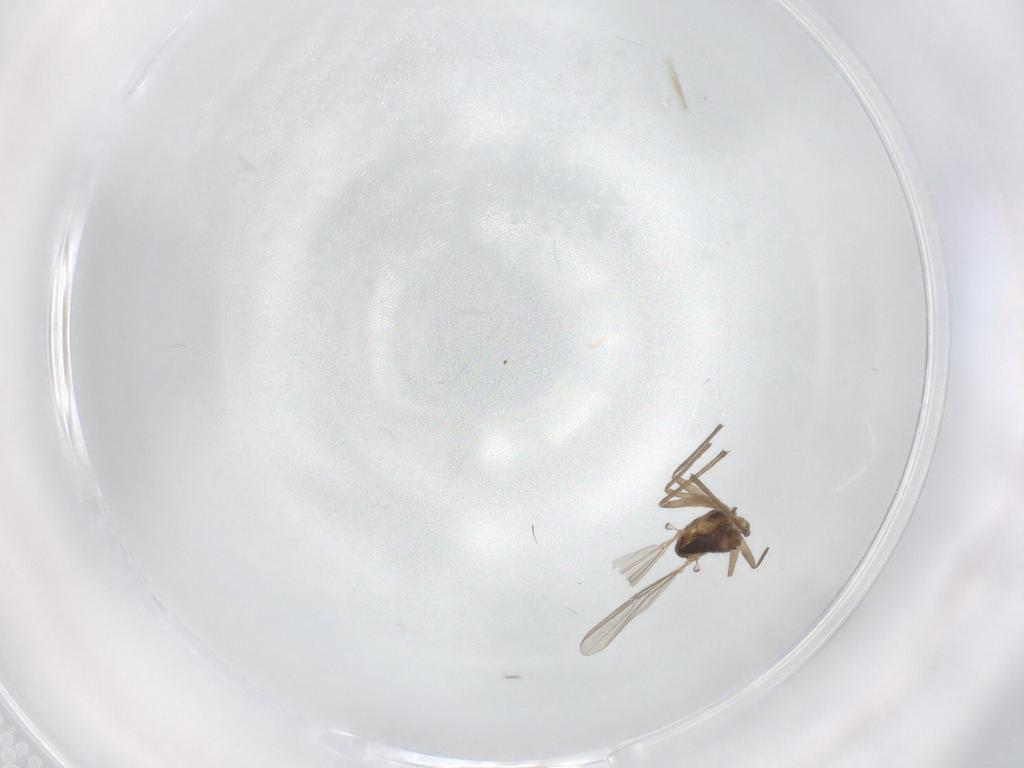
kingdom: Animalia
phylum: Arthropoda
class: Insecta
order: Diptera
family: Chironomidae
